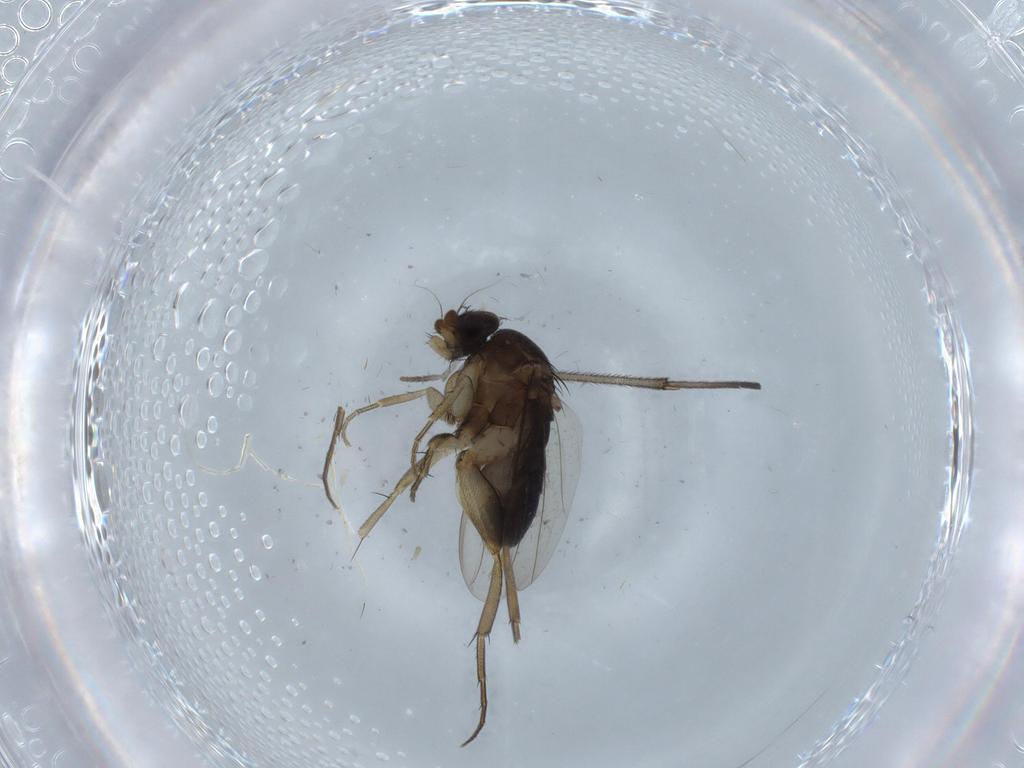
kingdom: Animalia
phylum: Arthropoda
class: Insecta
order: Diptera
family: Phoridae
